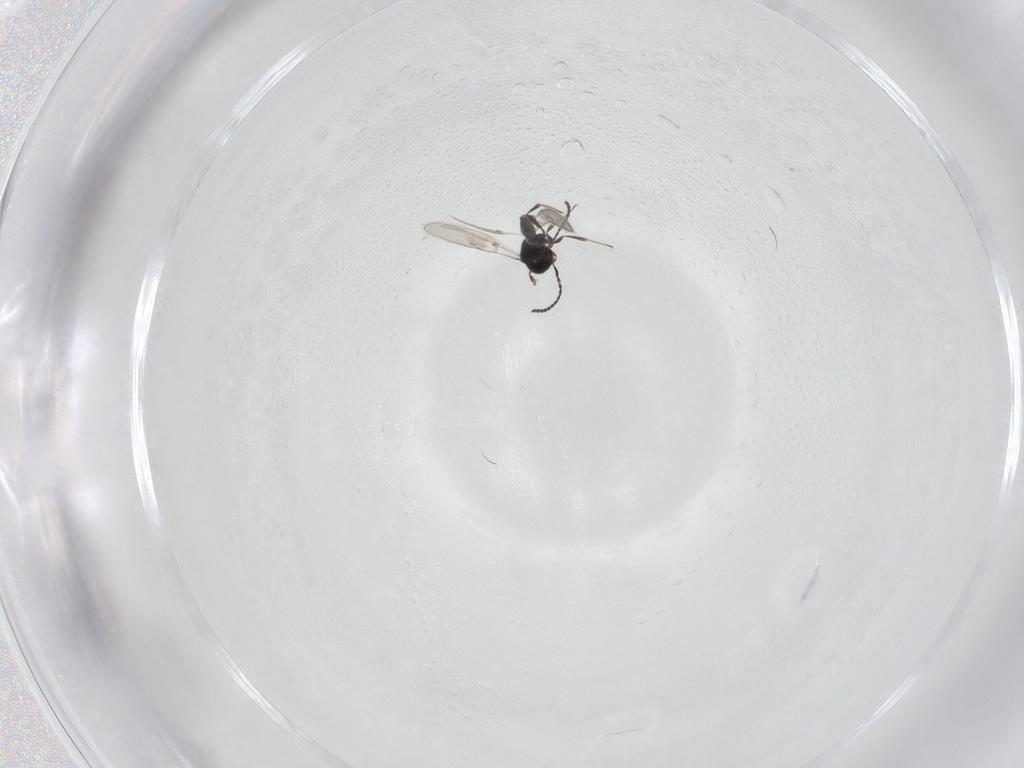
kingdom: Animalia
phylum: Arthropoda
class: Insecta
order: Hymenoptera
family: Scelionidae
